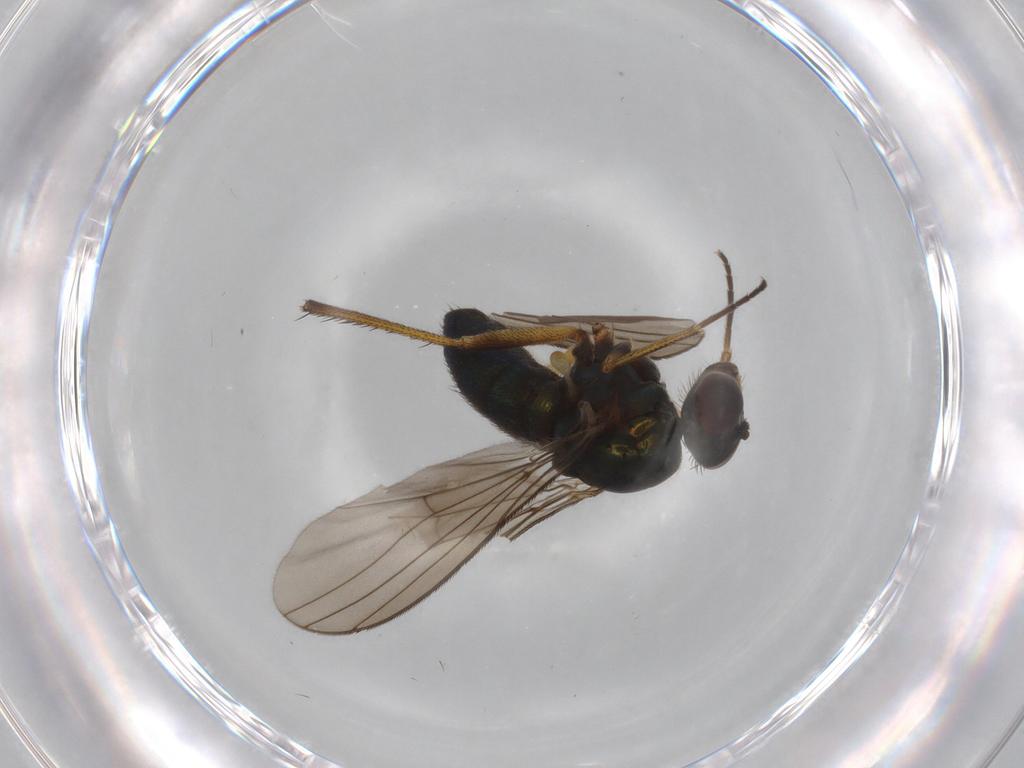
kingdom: Animalia
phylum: Arthropoda
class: Insecta
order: Diptera
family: Dolichopodidae
